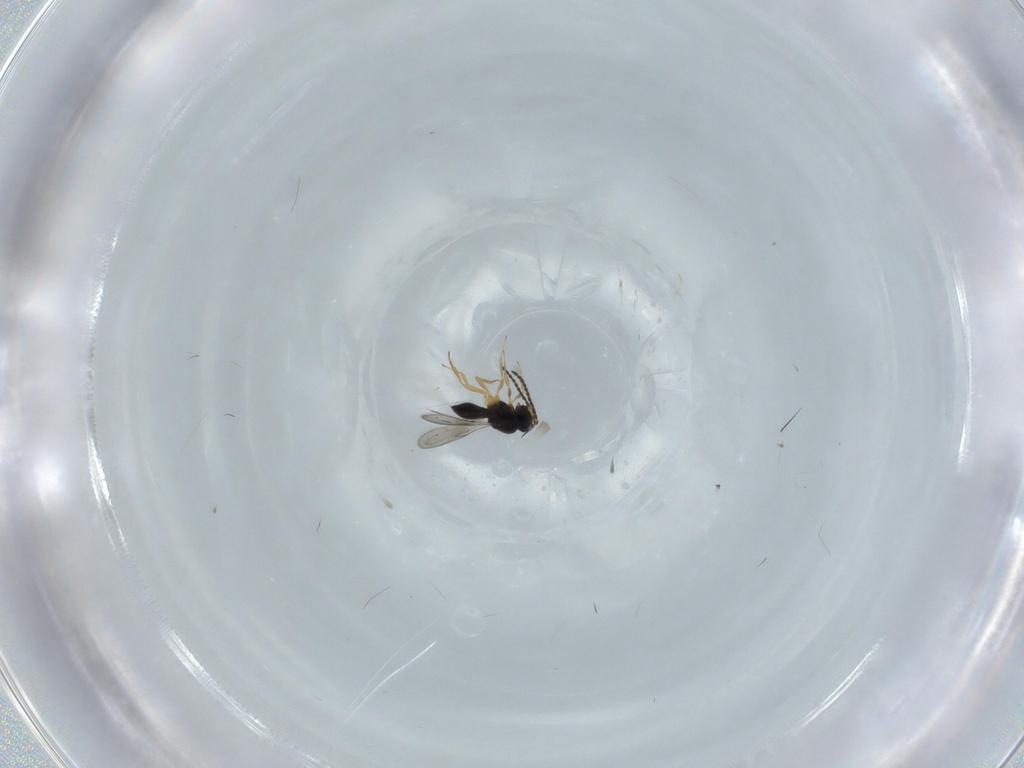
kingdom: Animalia
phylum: Arthropoda
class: Insecta
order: Hymenoptera
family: Scelionidae
